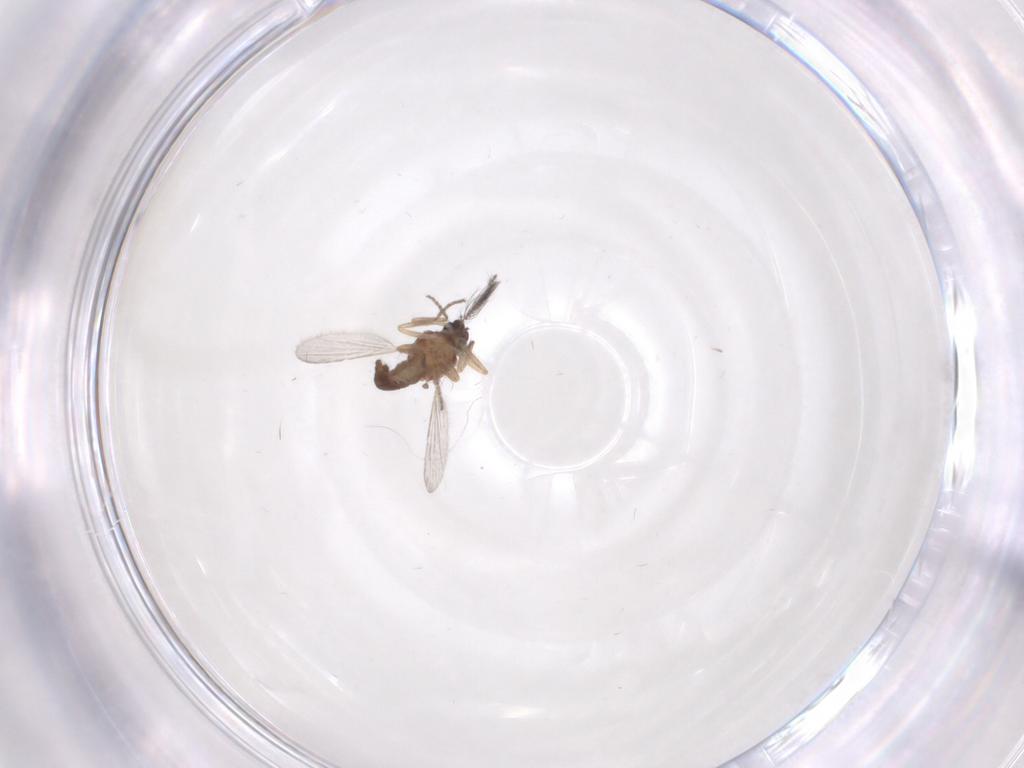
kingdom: Animalia
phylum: Arthropoda
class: Insecta
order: Diptera
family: Ceratopogonidae
